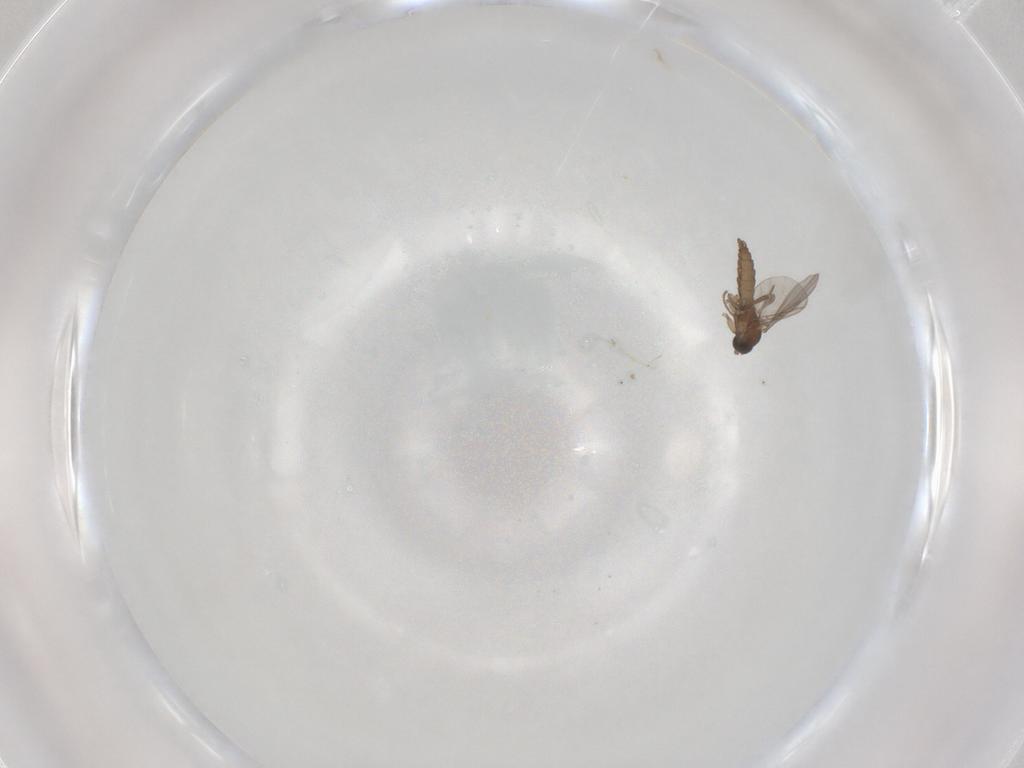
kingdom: Animalia
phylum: Arthropoda
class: Insecta
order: Diptera
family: Sciaridae
